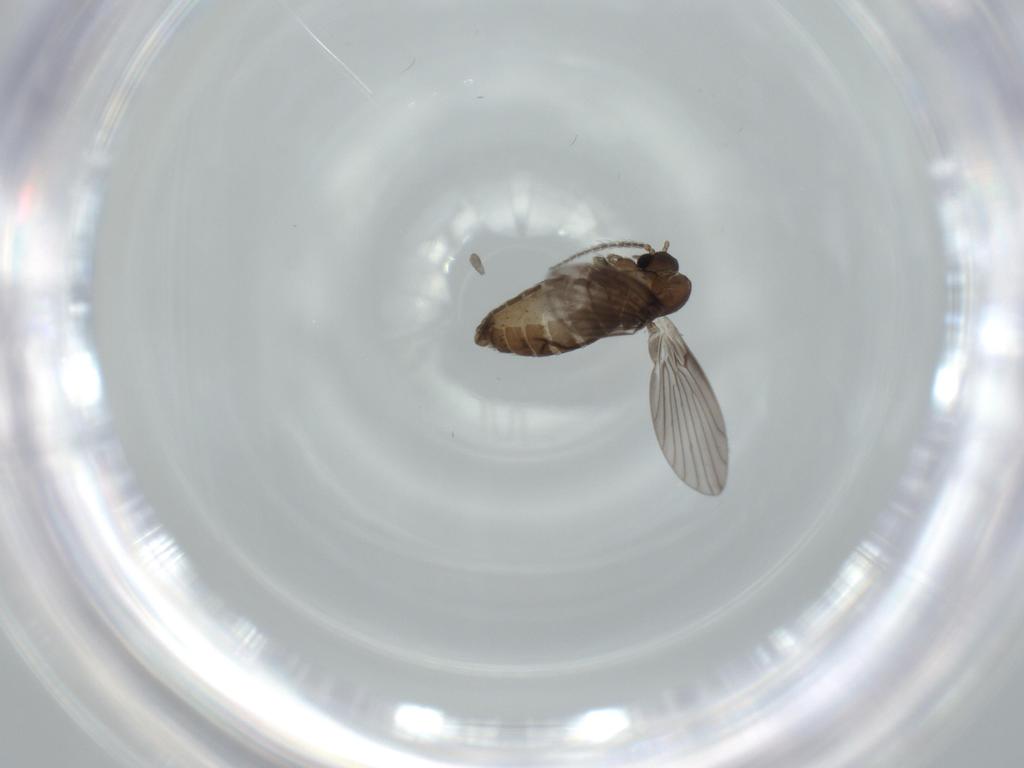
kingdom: Animalia
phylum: Arthropoda
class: Insecta
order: Diptera
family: Psychodidae
